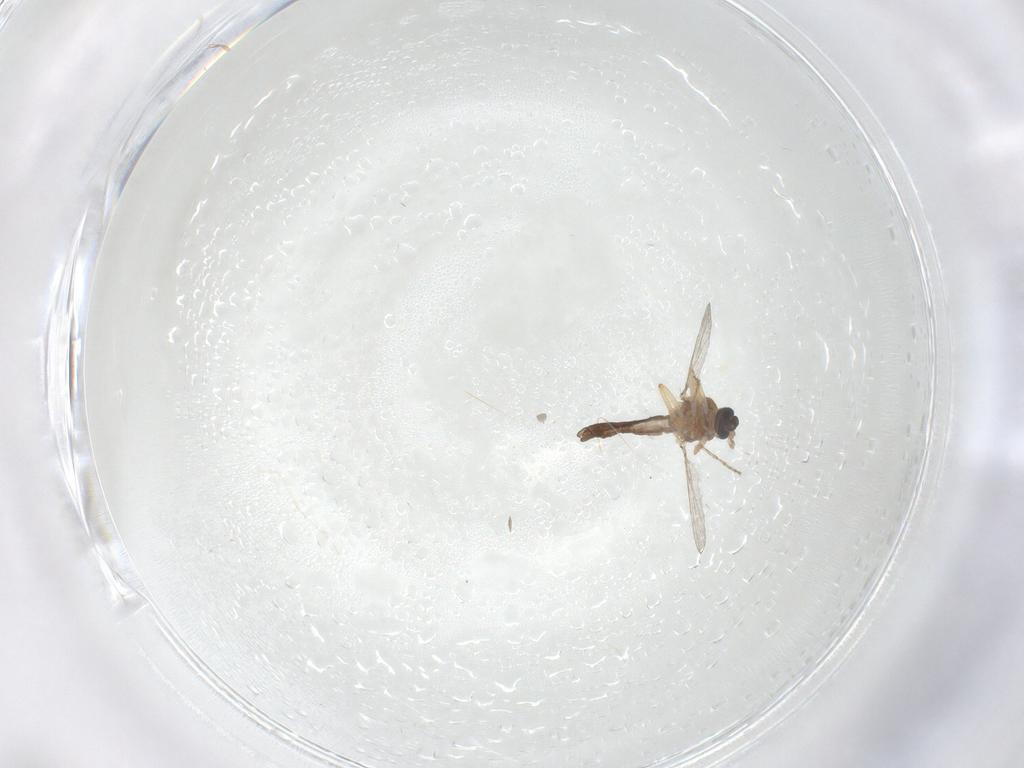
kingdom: Animalia
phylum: Arthropoda
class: Insecta
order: Diptera
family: Ceratopogonidae
